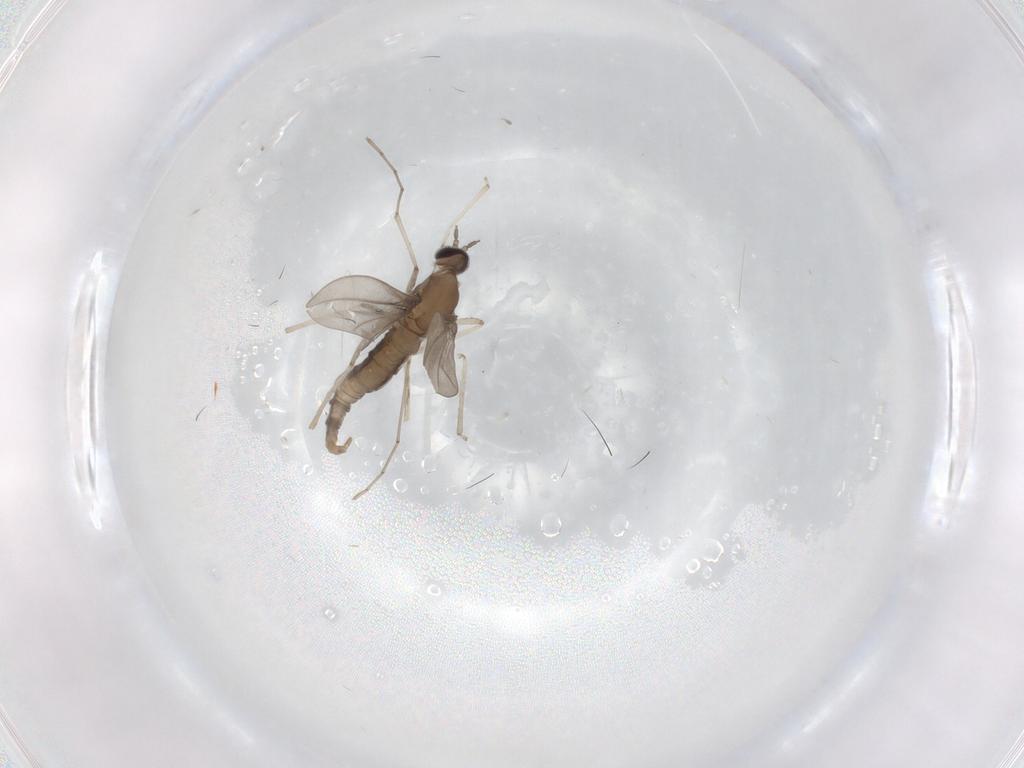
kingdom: Animalia
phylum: Arthropoda
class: Insecta
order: Diptera
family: Cecidomyiidae
